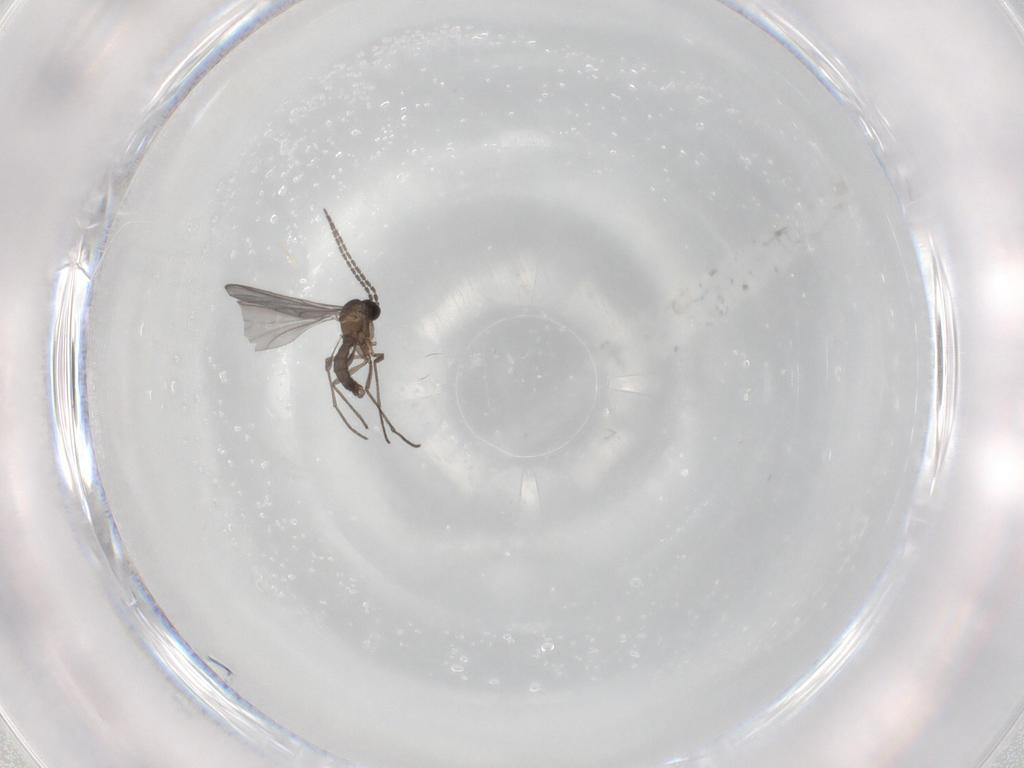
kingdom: Animalia
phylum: Arthropoda
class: Insecta
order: Diptera
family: Sciaridae
